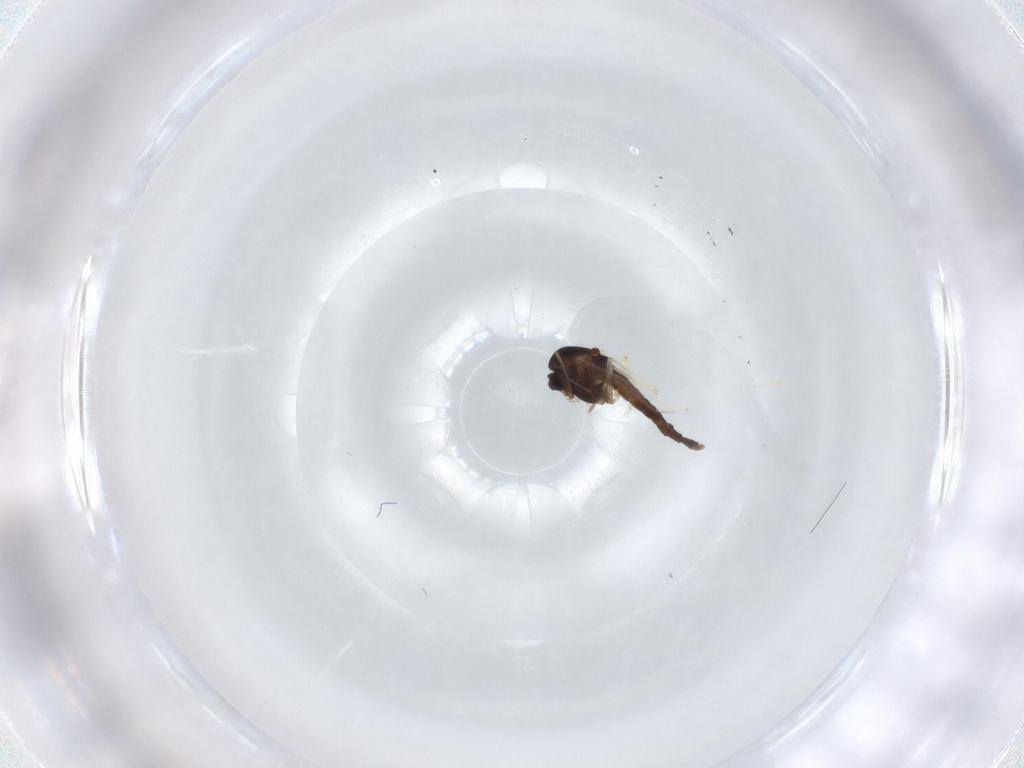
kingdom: Animalia
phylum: Arthropoda
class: Insecta
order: Diptera
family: Chironomidae
